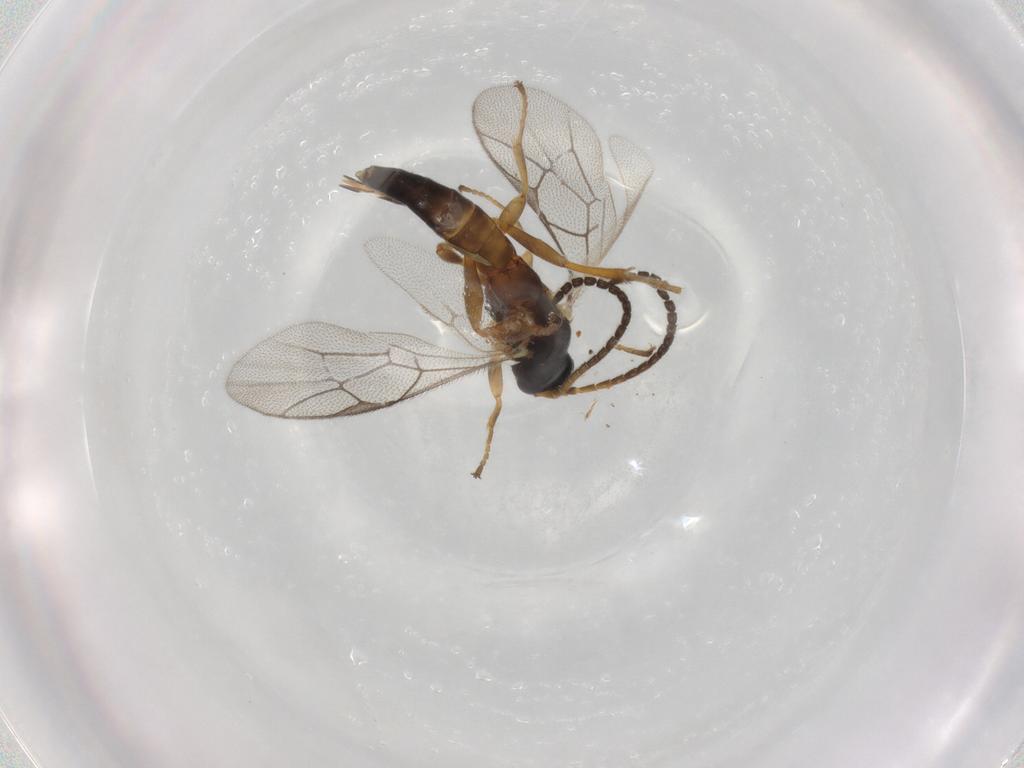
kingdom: Animalia
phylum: Arthropoda
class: Insecta
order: Hymenoptera
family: Ichneumonidae
